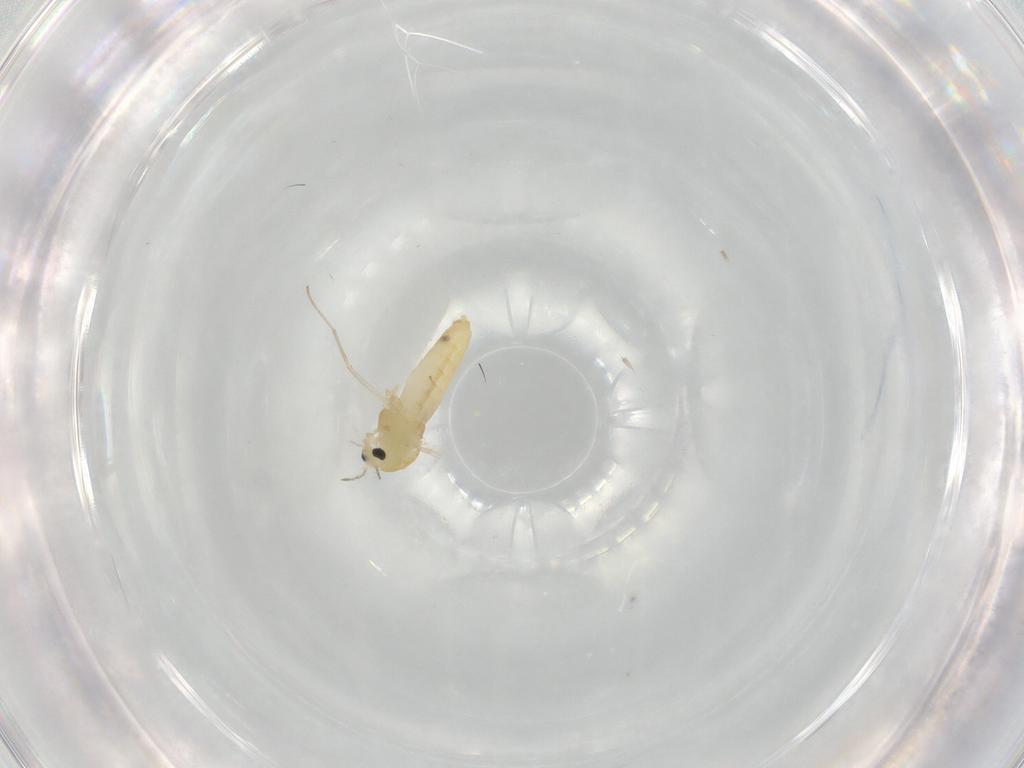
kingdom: Animalia
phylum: Arthropoda
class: Insecta
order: Diptera
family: Chironomidae
